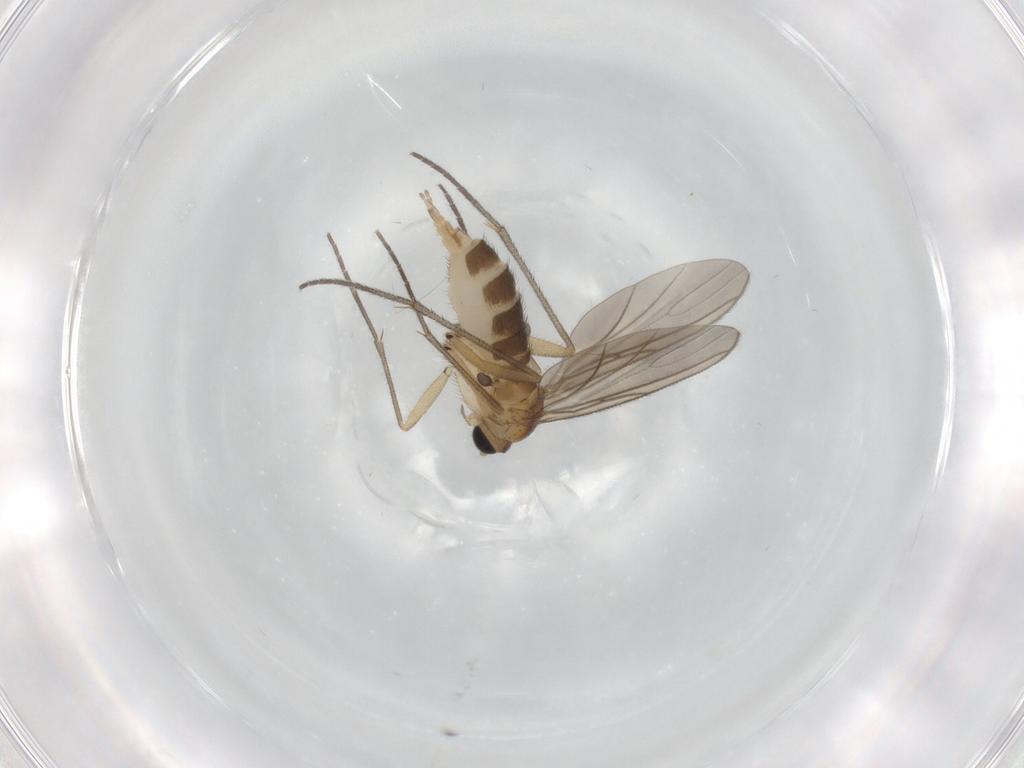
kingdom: Animalia
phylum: Arthropoda
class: Insecta
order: Diptera
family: Sciaridae
